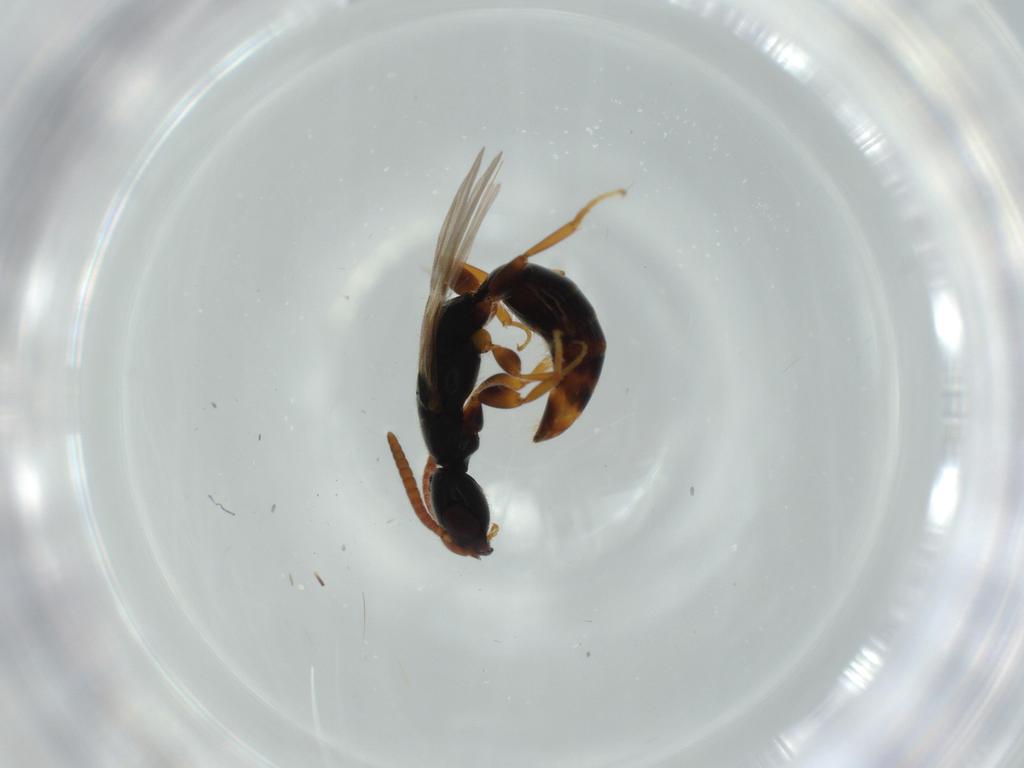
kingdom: Animalia
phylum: Arthropoda
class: Insecta
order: Hymenoptera
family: Bethylidae
